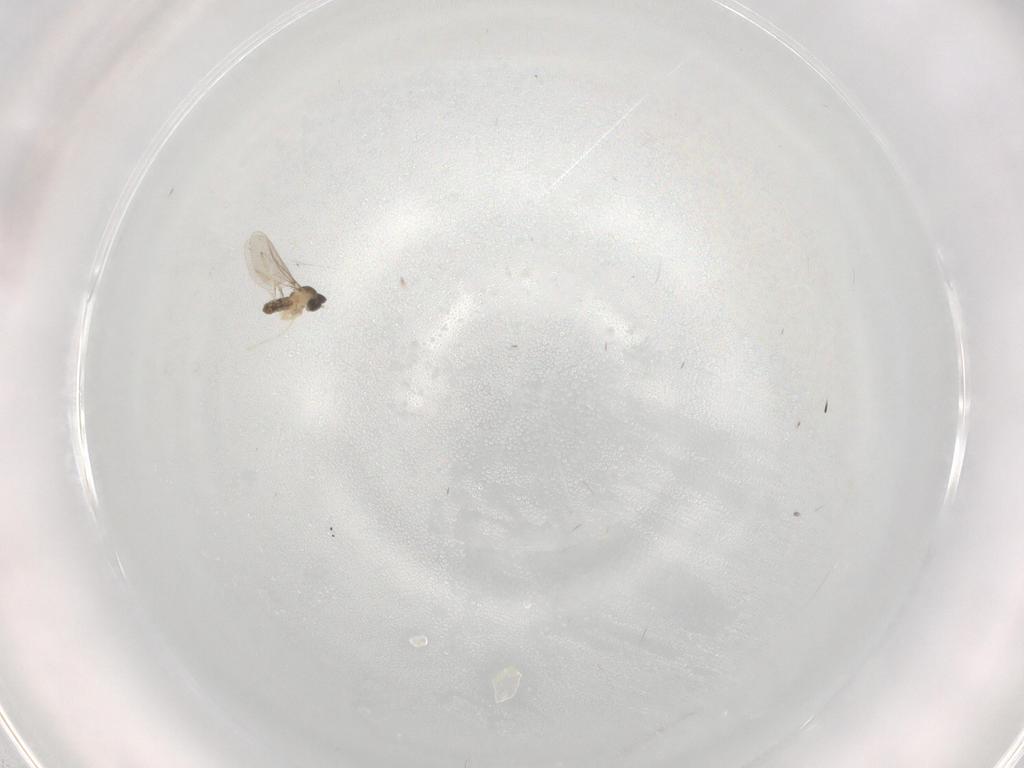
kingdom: Animalia
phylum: Arthropoda
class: Insecta
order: Diptera
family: Cecidomyiidae
